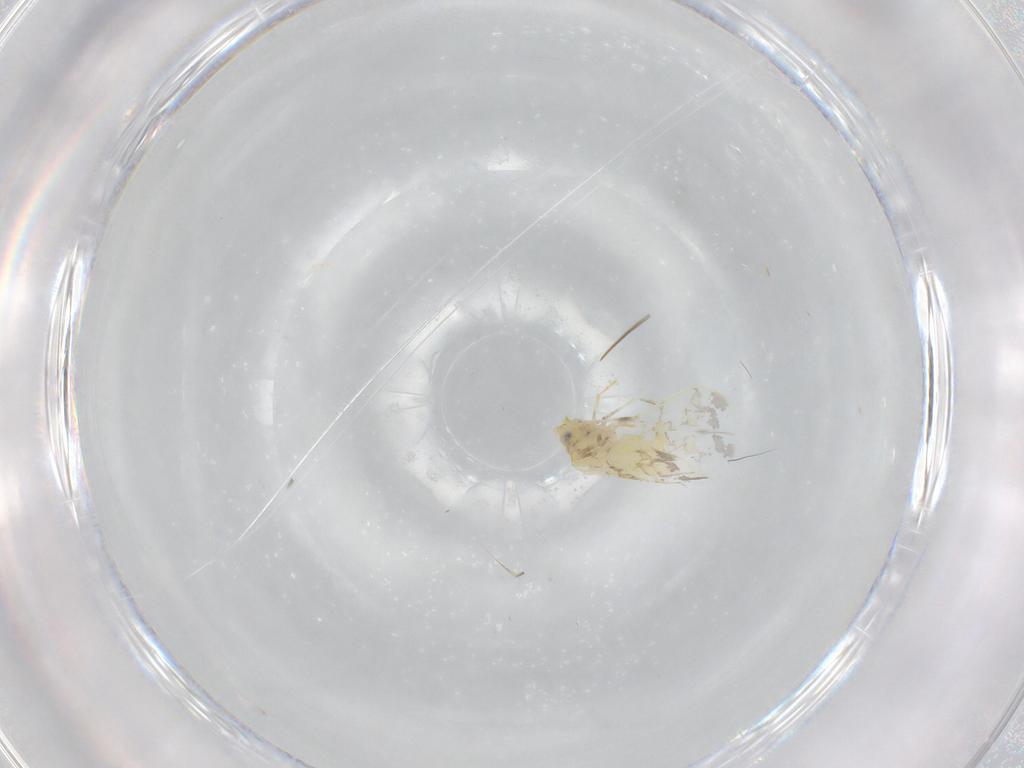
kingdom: Animalia
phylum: Arthropoda
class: Insecta
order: Hemiptera
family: Aleyrodidae
